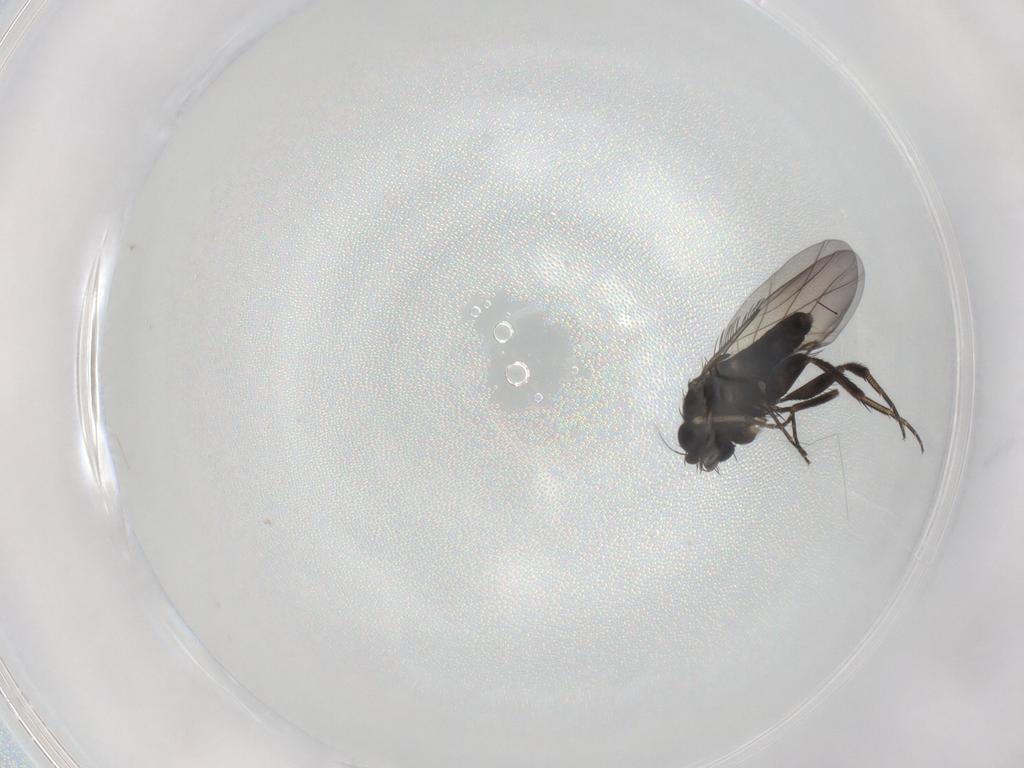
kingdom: Animalia
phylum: Arthropoda
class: Insecta
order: Diptera
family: Phoridae
